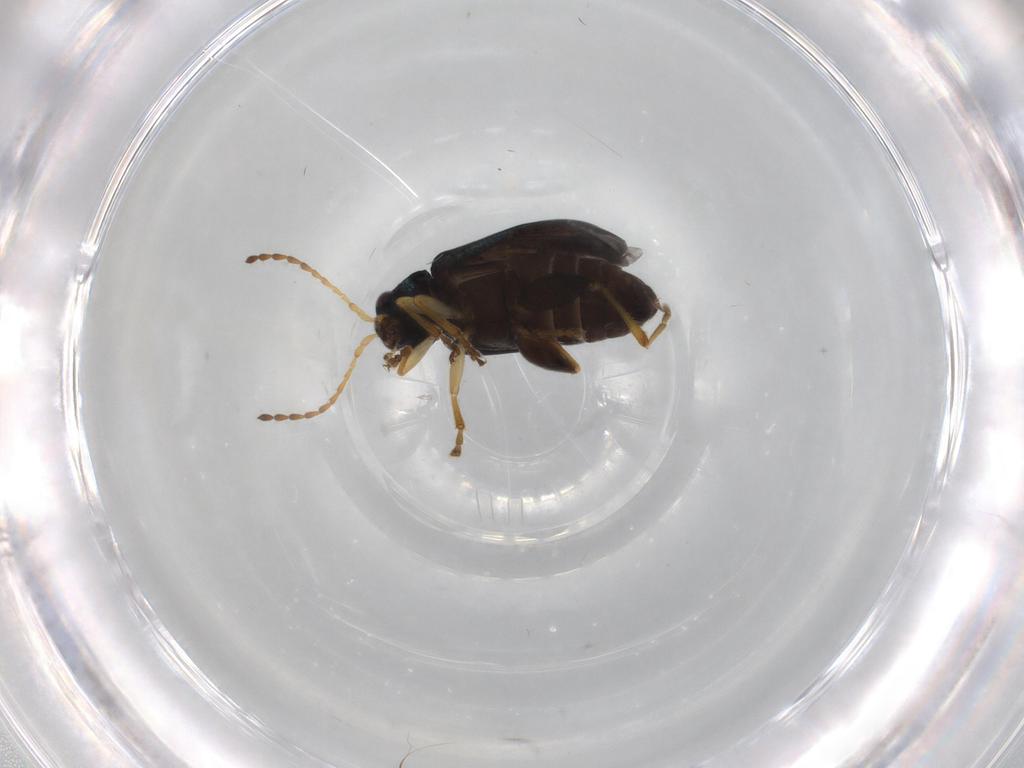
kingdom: Animalia
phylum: Arthropoda
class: Insecta
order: Coleoptera
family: Chrysomelidae
